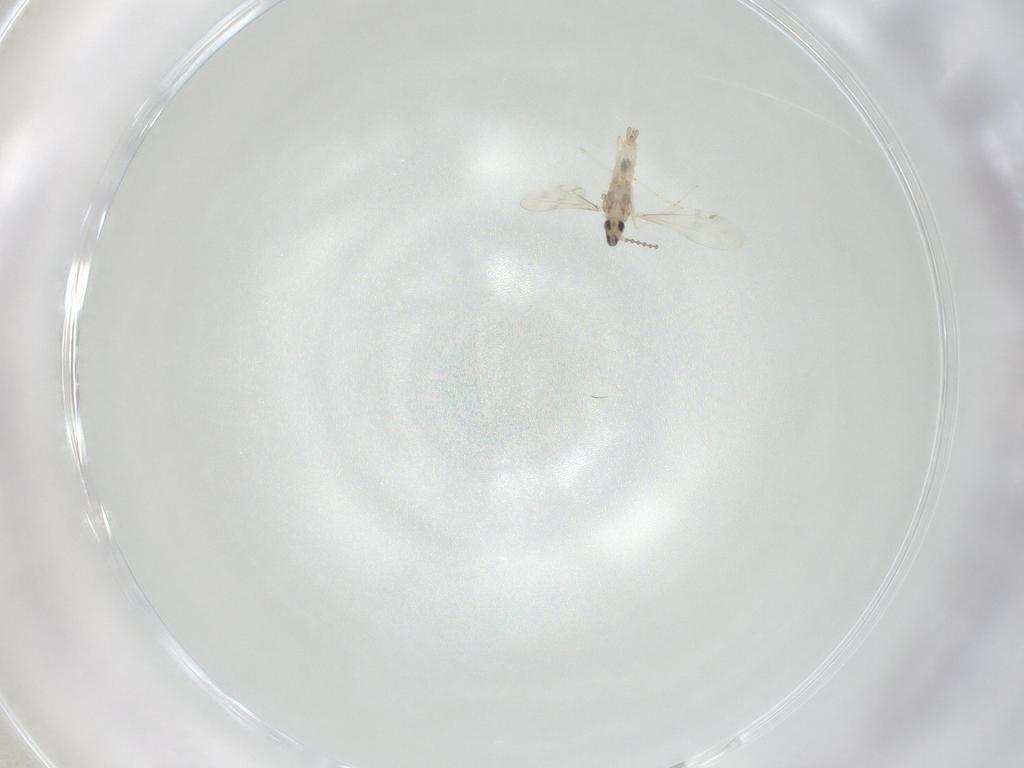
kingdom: Animalia
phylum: Arthropoda
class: Insecta
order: Diptera
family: Cecidomyiidae
